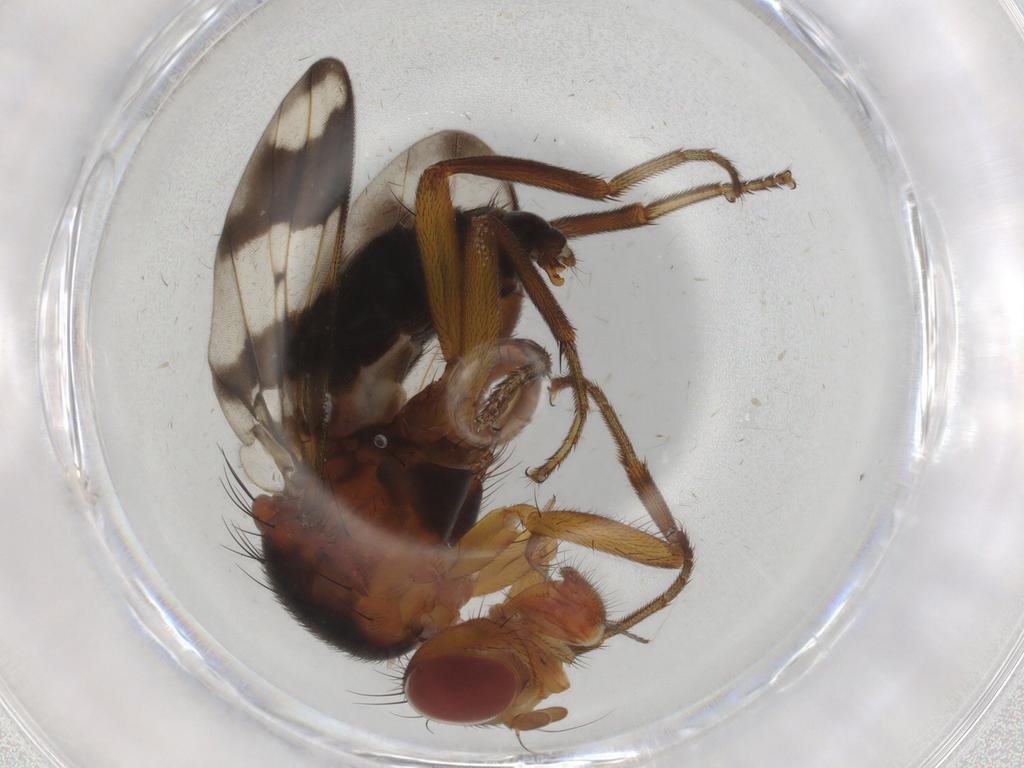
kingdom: Animalia
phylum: Arthropoda
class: Insecta
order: Diptera
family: Richardiidae
